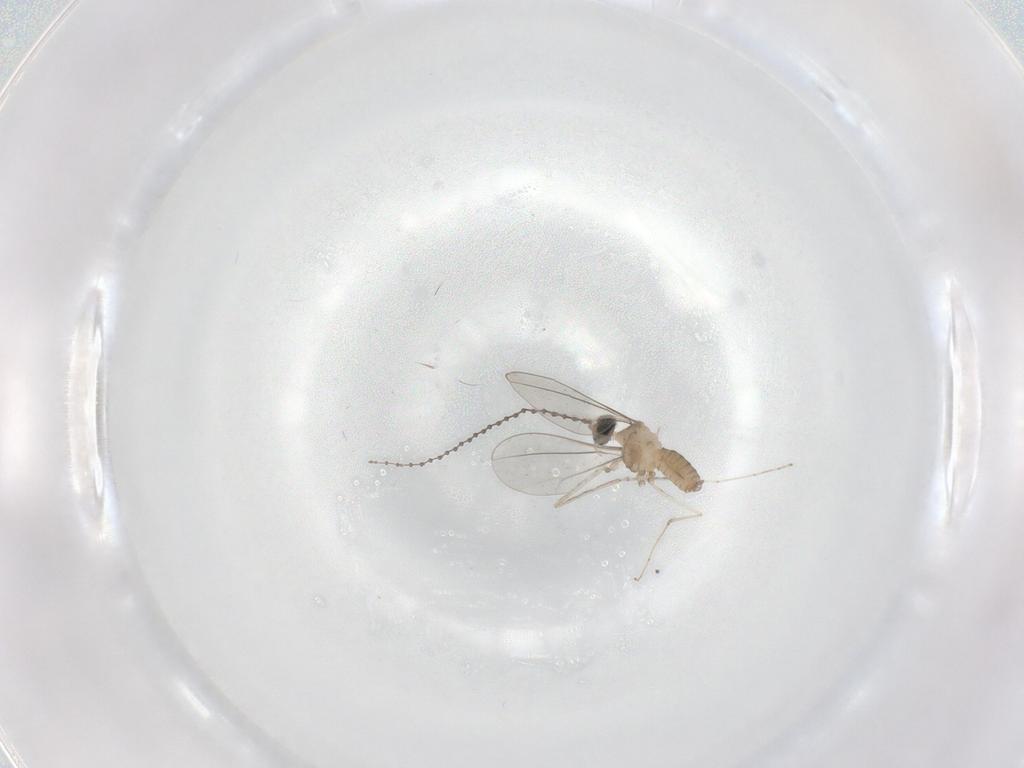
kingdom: Animalia
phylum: Arthropoda
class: Insecta
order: Diptera
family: Cecidomyiidae
